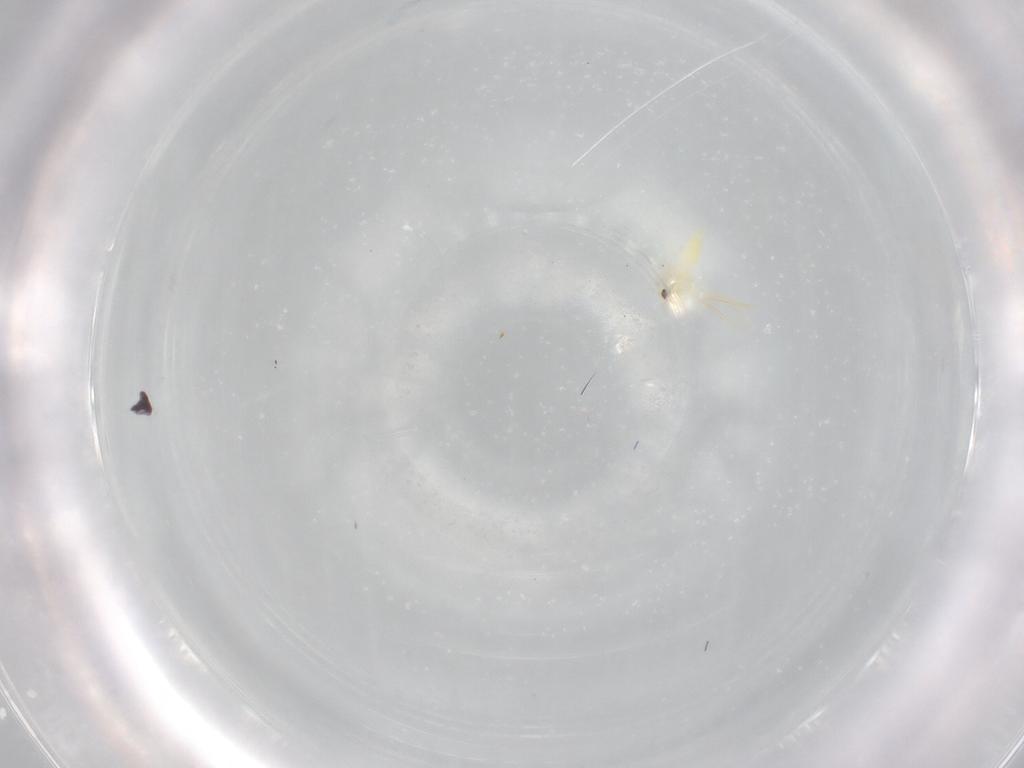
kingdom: Animalia
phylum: Arthropoda
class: Insecta
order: Hemiptera
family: Aleyrodidae
